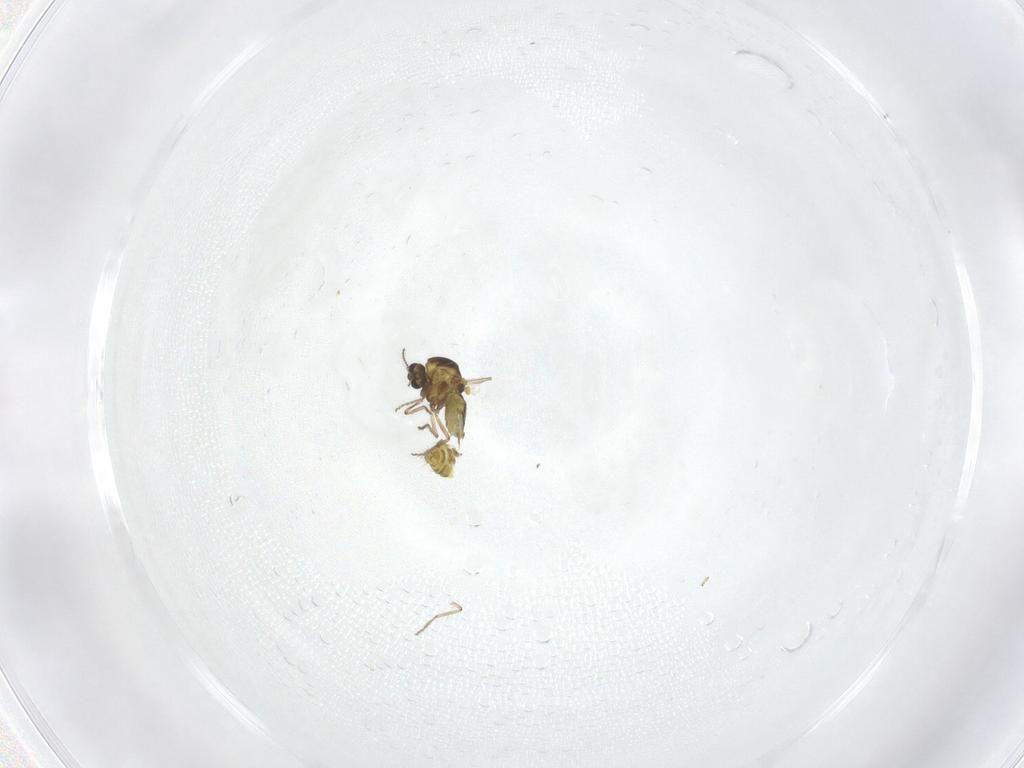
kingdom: Animalia
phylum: Arthropoda
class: Insecta
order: Diptera
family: Ceratopogonidae
